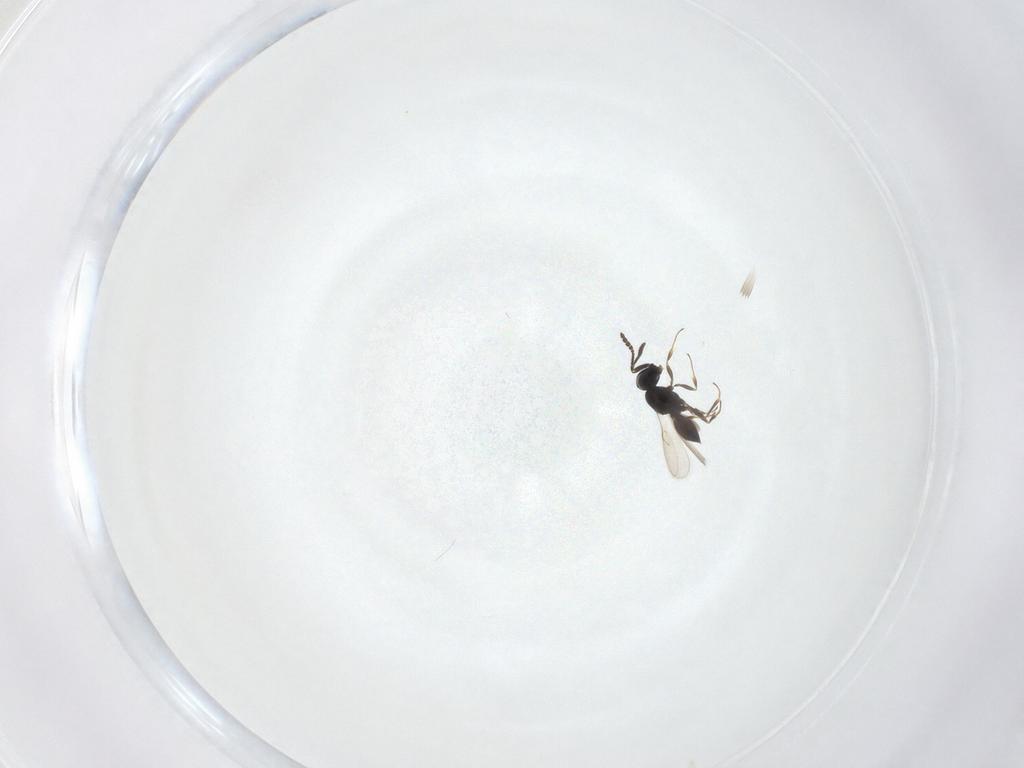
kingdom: Animalia
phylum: Arthropoda
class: Insecta
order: Hymenoptera
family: Scelionidae
